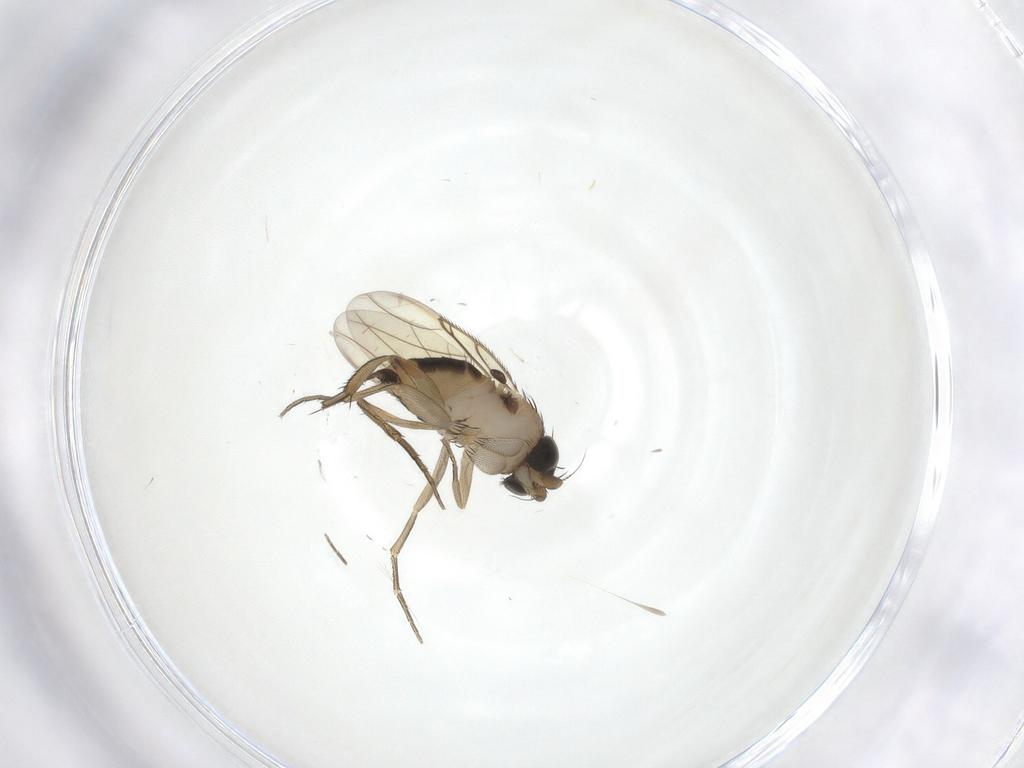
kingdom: Animalia
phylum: Arthropoda
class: Insecta
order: Diptera
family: Phoridae
